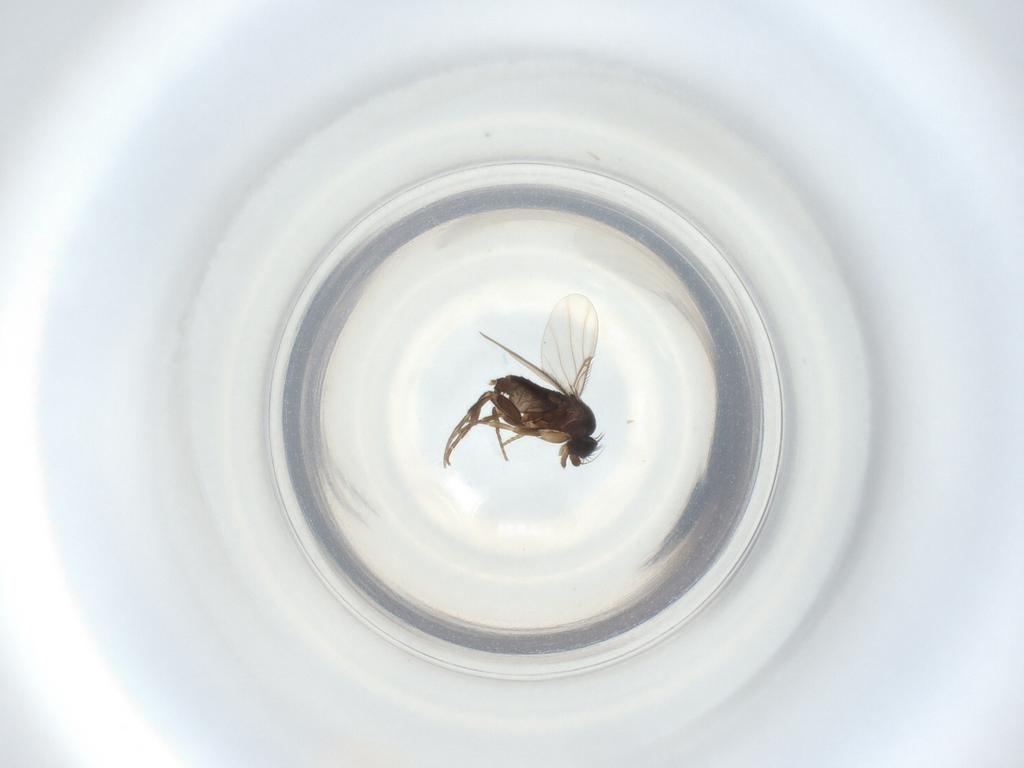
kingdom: Animalia
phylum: Arthropoda
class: Insecta
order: Diptera
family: Phoridae
